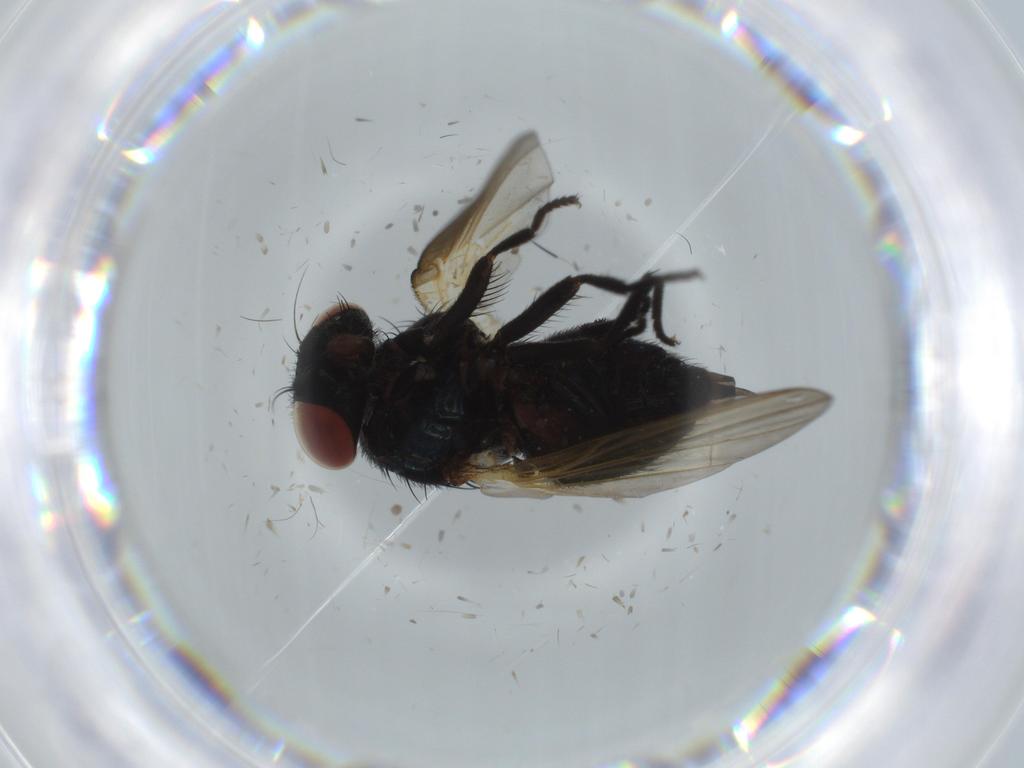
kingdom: Animalia
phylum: Arthropoda
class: Insecta
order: Diptera
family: Lonchaeidae
